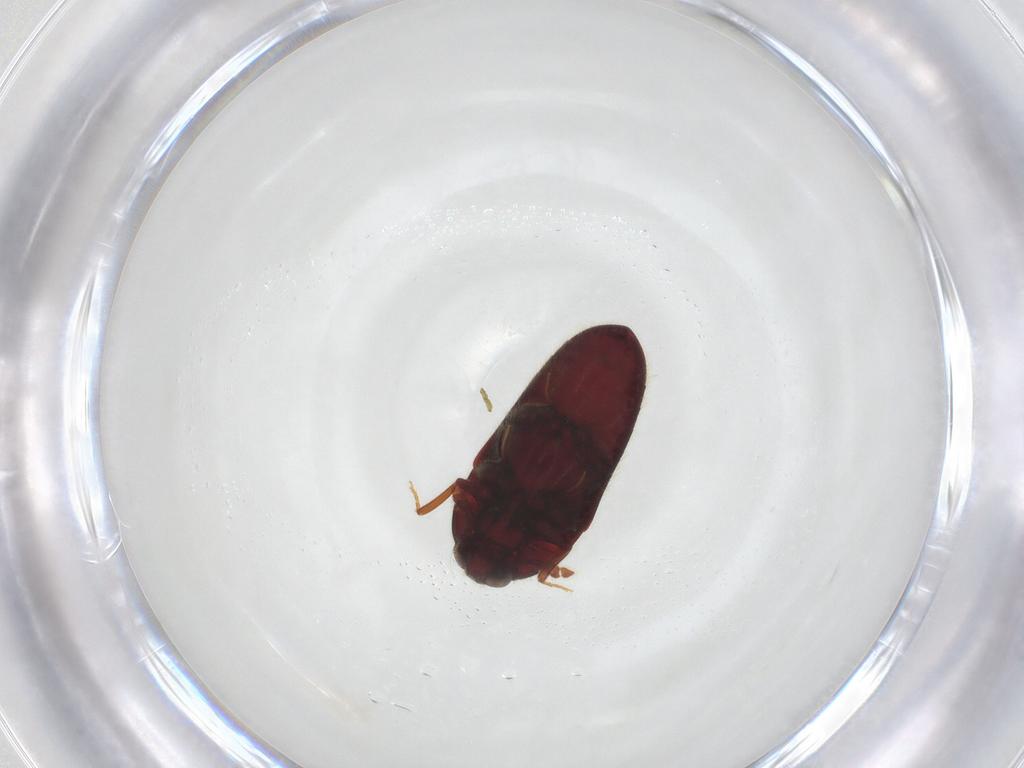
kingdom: Animalia
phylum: Arthropoda
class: Insecta
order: Coleoptera
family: Throscidae
